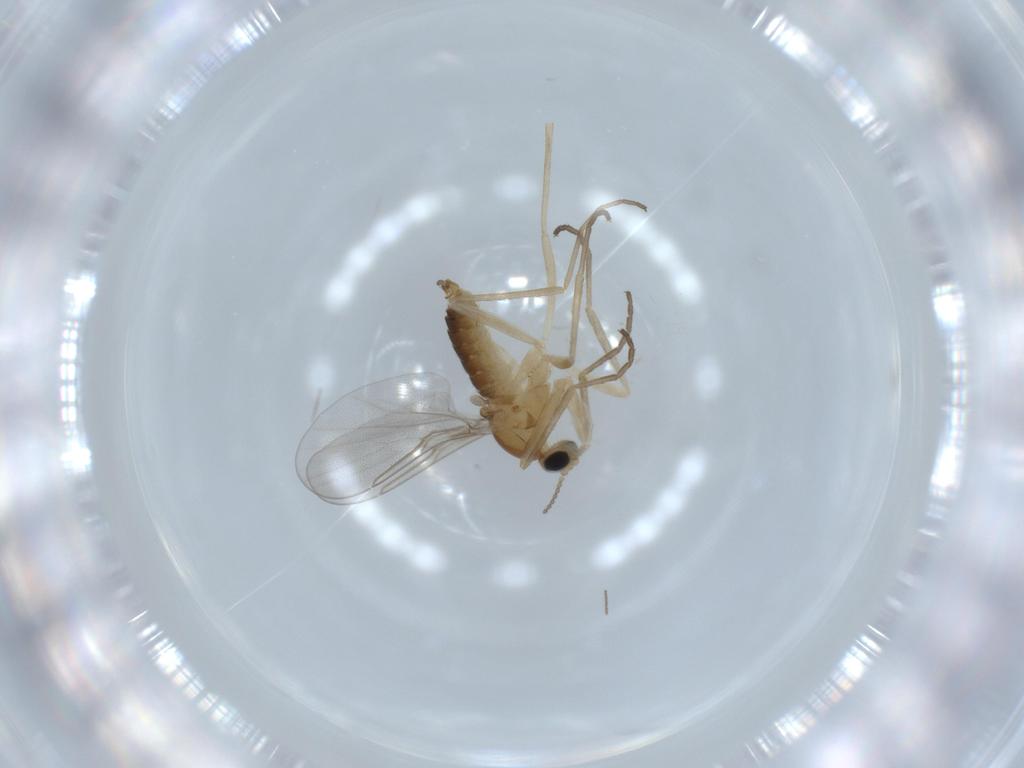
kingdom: Animalia
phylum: Arthropoda
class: Insecta
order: Diptera
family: Cecidomyiidae
